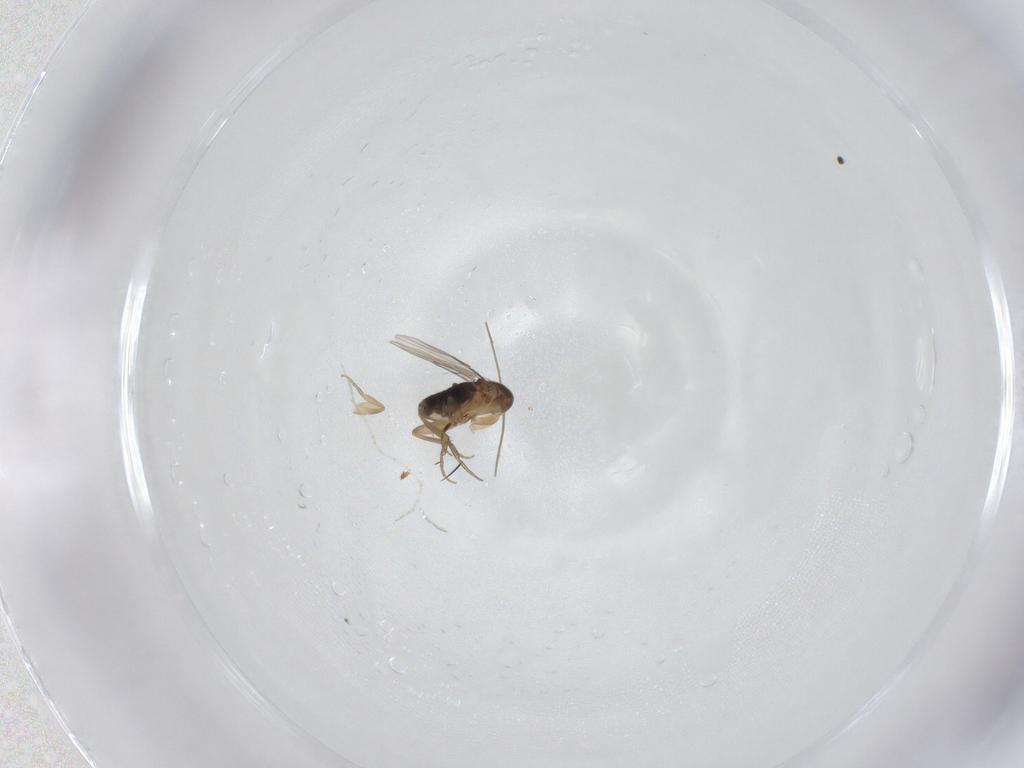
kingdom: Animalia
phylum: Arthropoda
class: Insecta
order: Diptera
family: Phoridae
